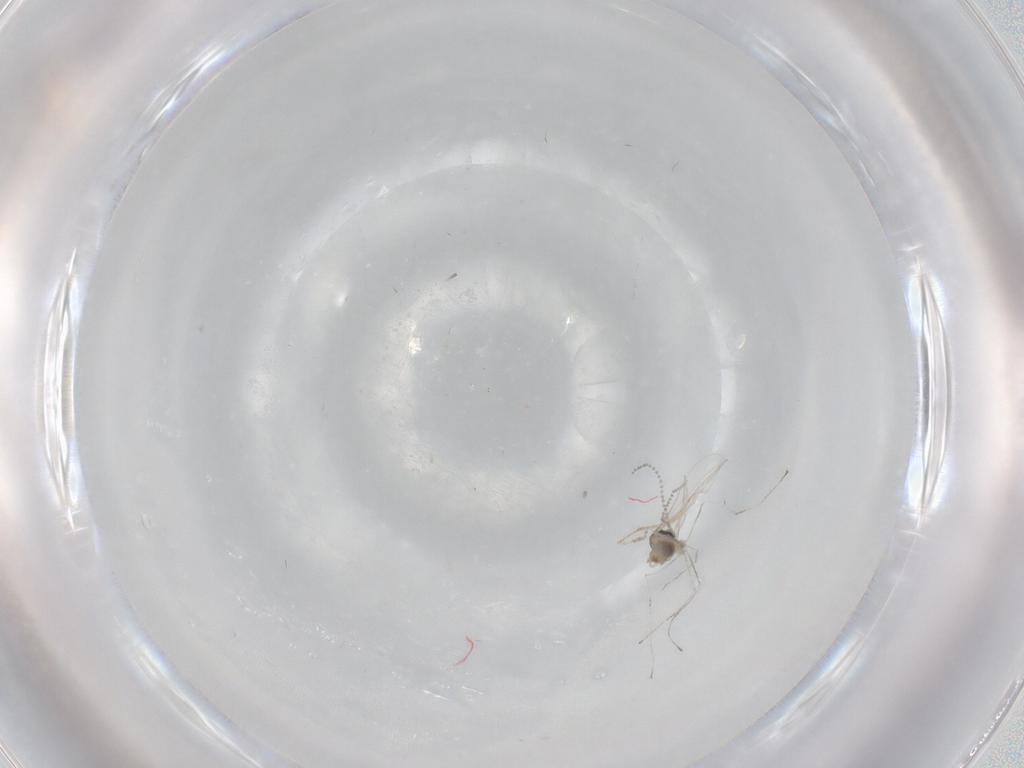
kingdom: Animalia
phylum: Arthropoda
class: Insecta
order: Diptera
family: Cecidomyiidae
